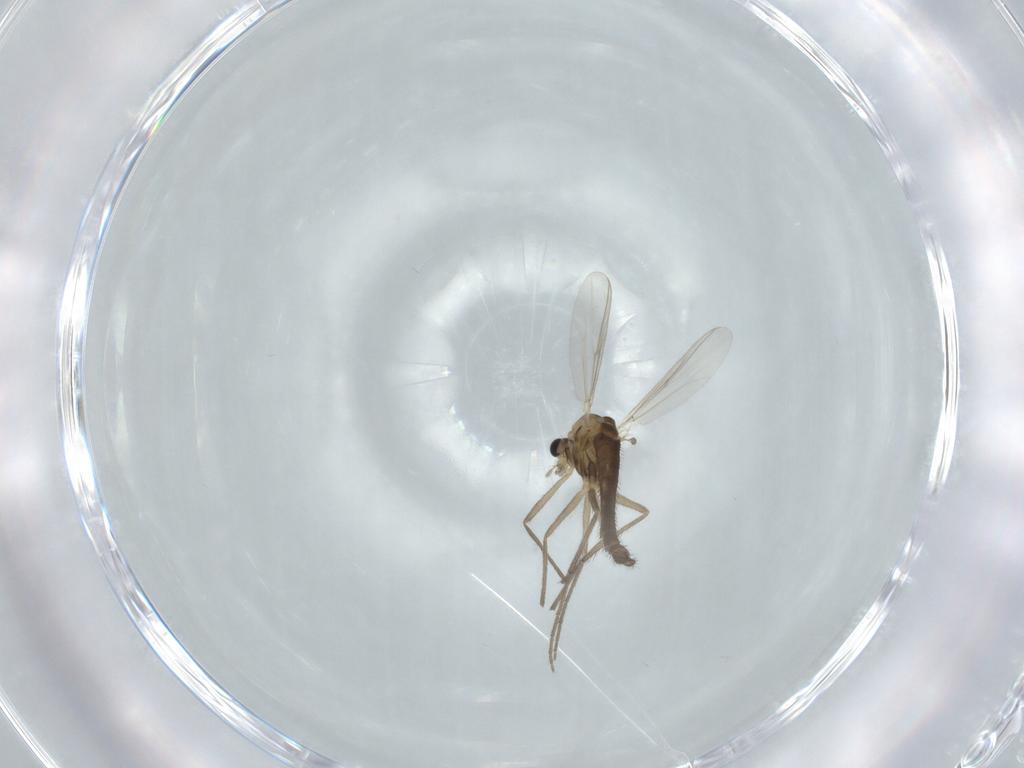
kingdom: Animalia
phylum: Arthropoda
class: Insecta
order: Diptera
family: Chironomidae
